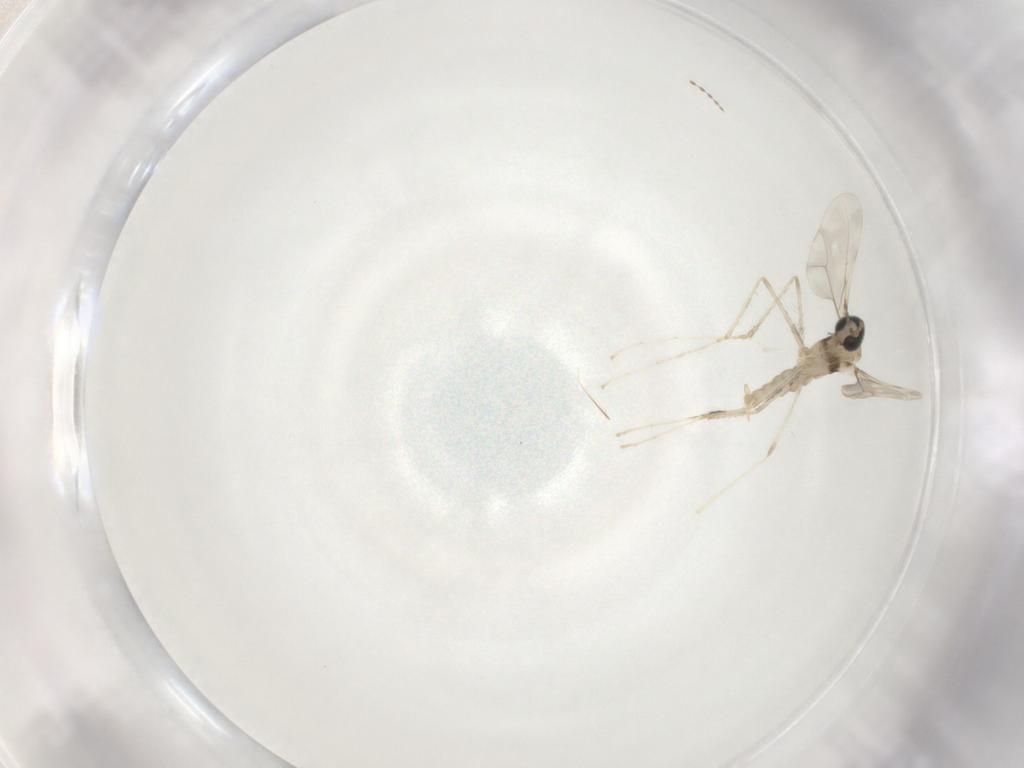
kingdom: Animalia
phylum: Arthropoda
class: Insecta
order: Diptera
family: Cecidomyiidae
